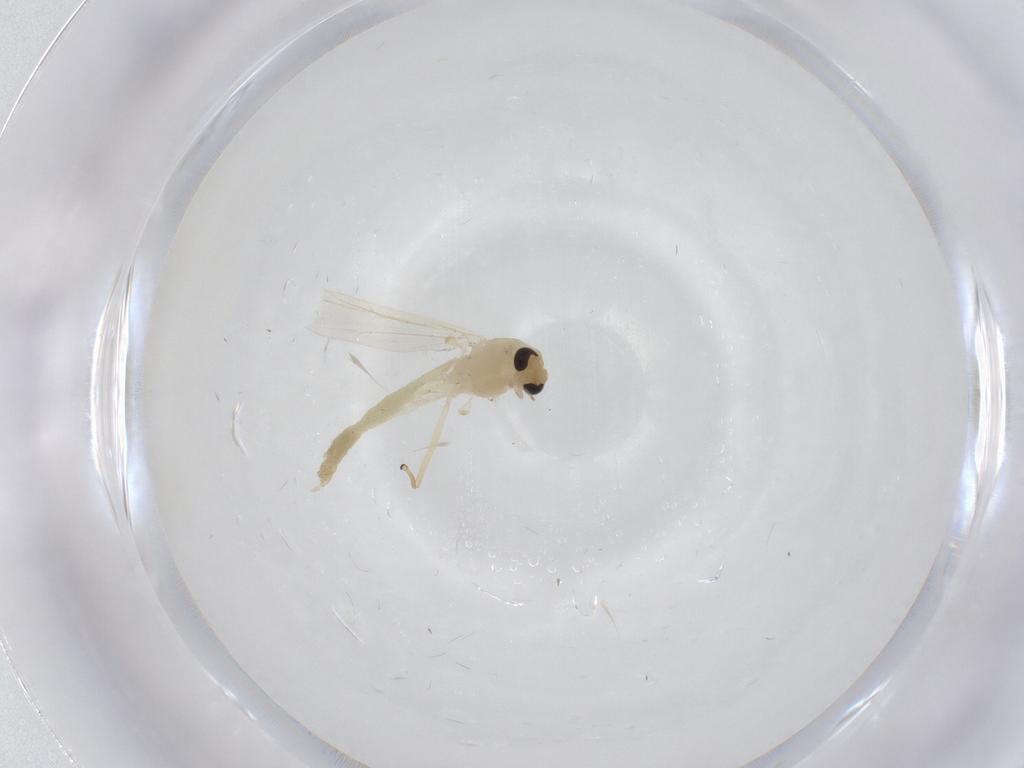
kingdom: Animalia
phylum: Arthropoda
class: Insecta
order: Diptera
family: Chironomidae
